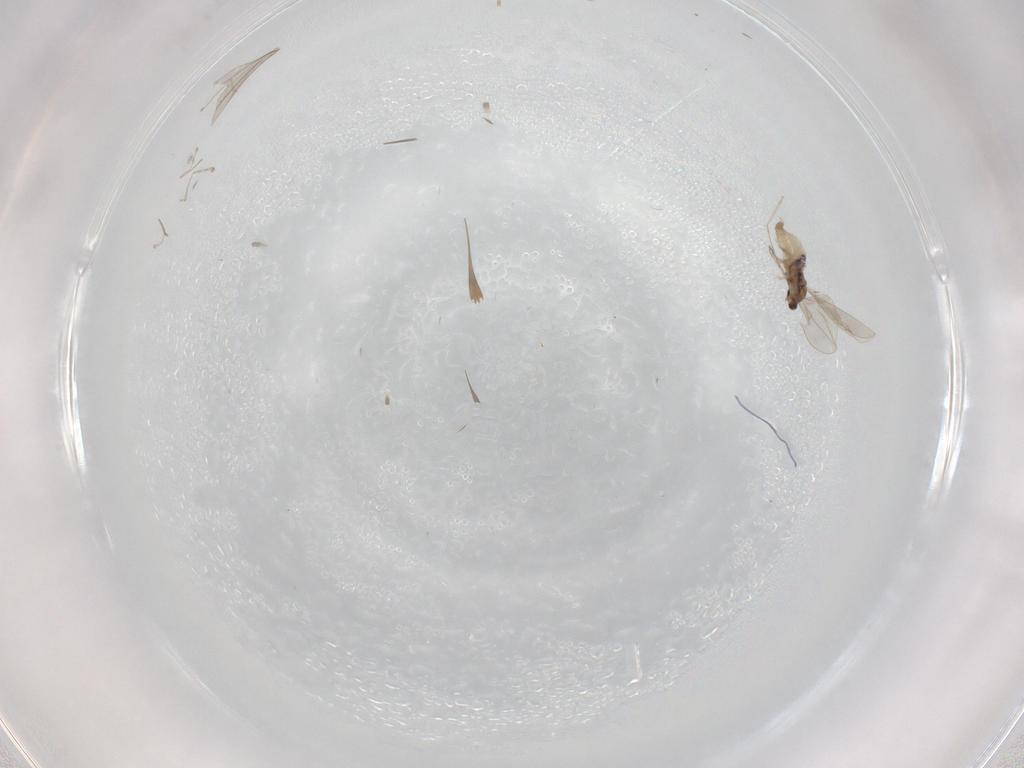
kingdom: Animalia
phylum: Arthropoda
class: Insecta
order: Diptera
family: Cecidomyiidae
